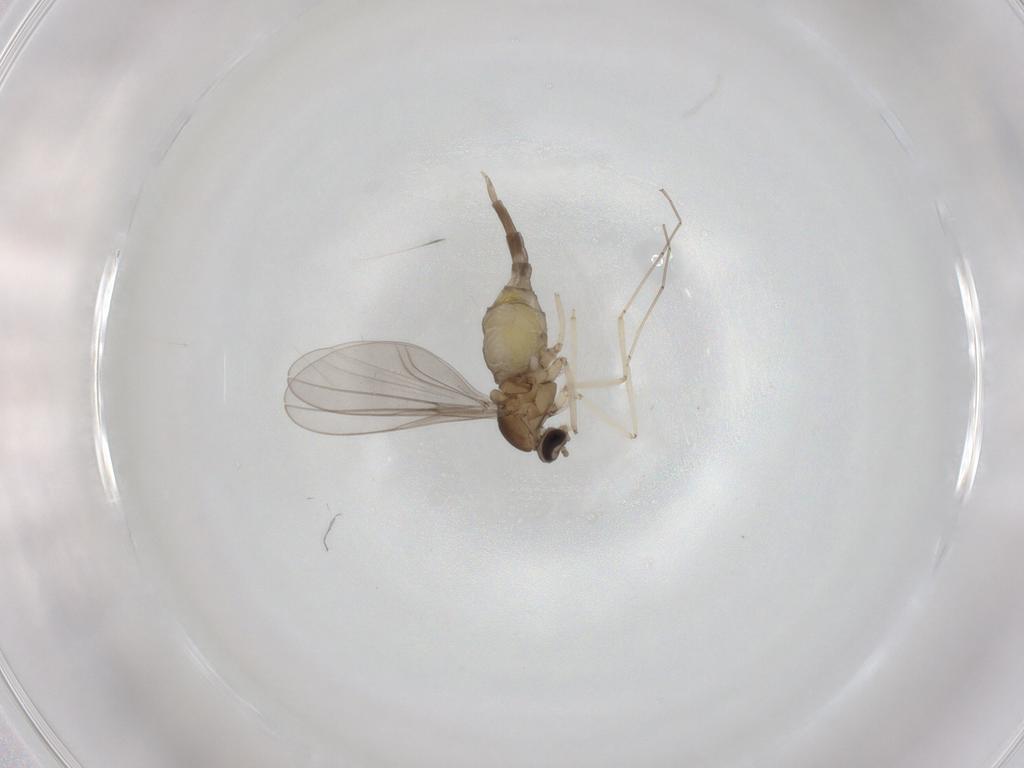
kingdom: Animalia
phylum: Arthropoda
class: Insecta
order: Diptera
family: Cecidomyiidae
